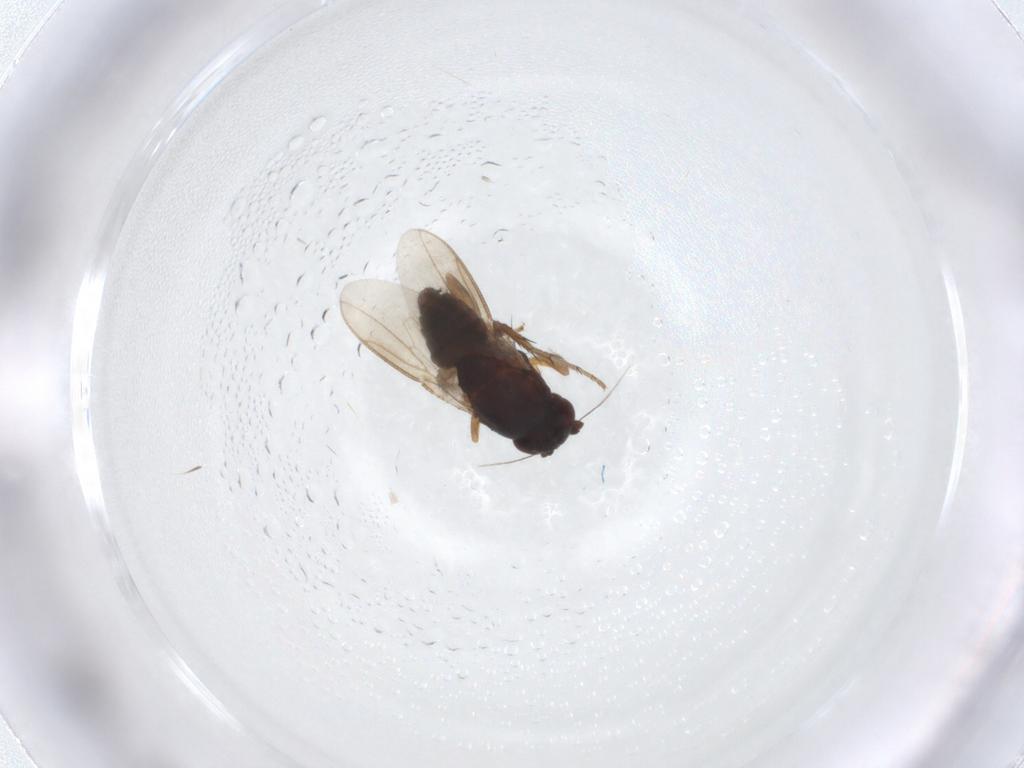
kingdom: Animalia
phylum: Arthropoda
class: Insecta
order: Diptera
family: Sphaeroceridae
